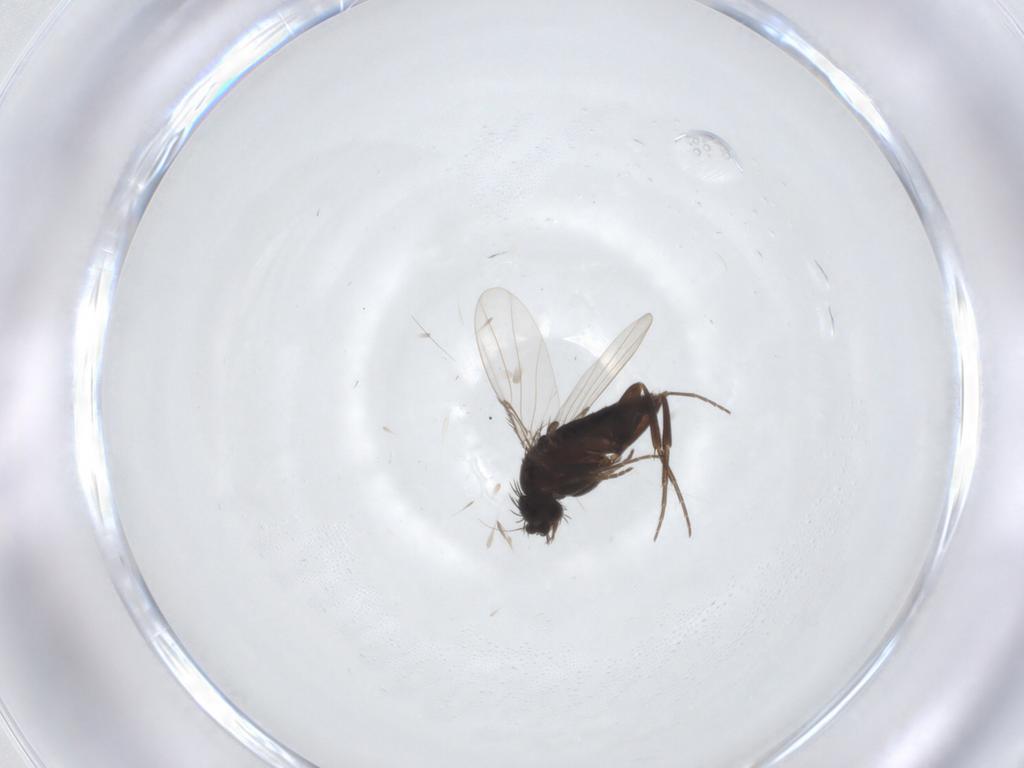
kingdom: Animalia
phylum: Arthropoda
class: Insecta
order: Diptera
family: Phoridae
